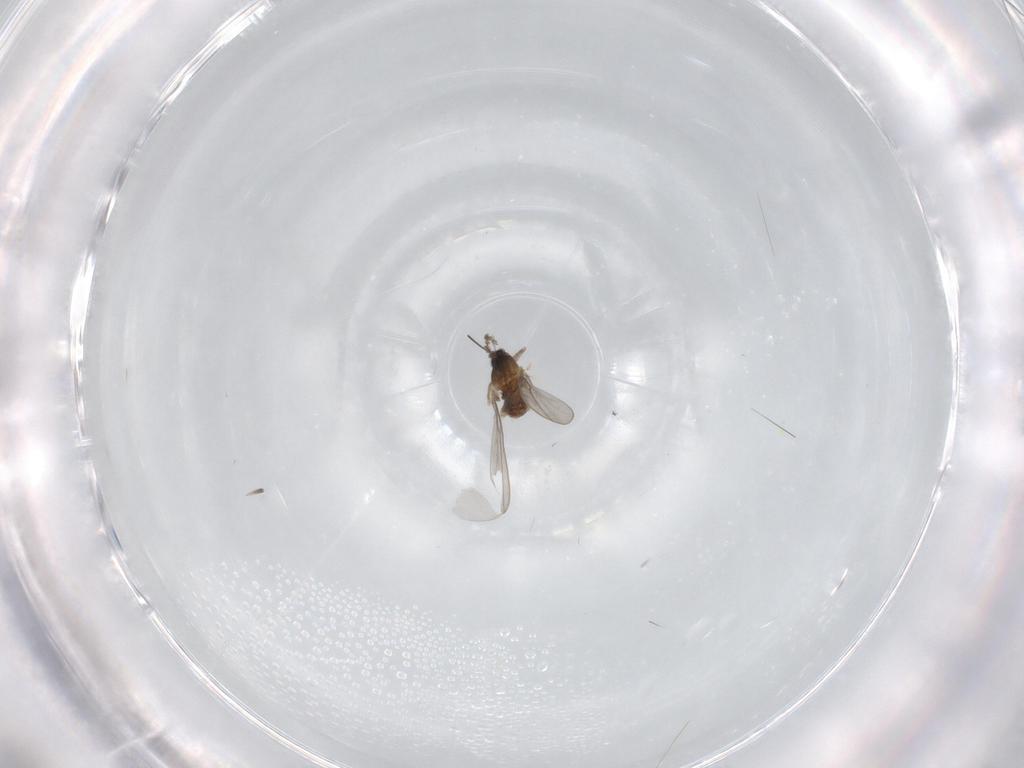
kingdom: Animalia
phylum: Arthropoda
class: Insecta
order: Diptera
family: Cecidomyiidae
